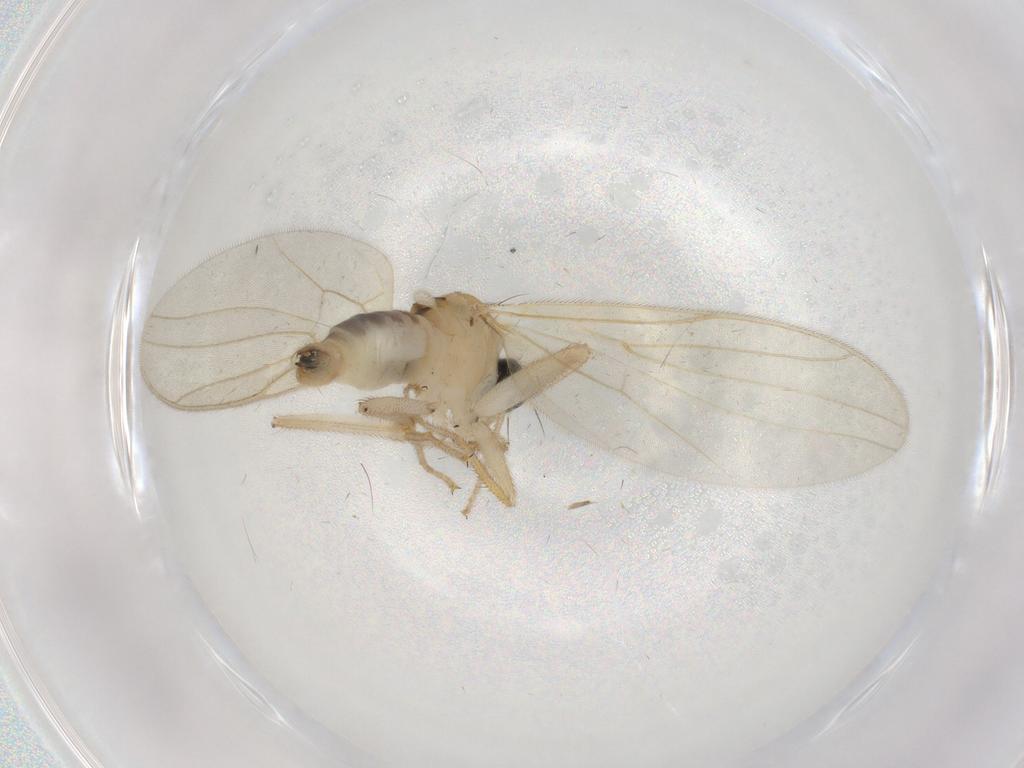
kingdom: Animalia
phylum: Arthropoda
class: Insecta
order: Diptera
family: Hybotidae
